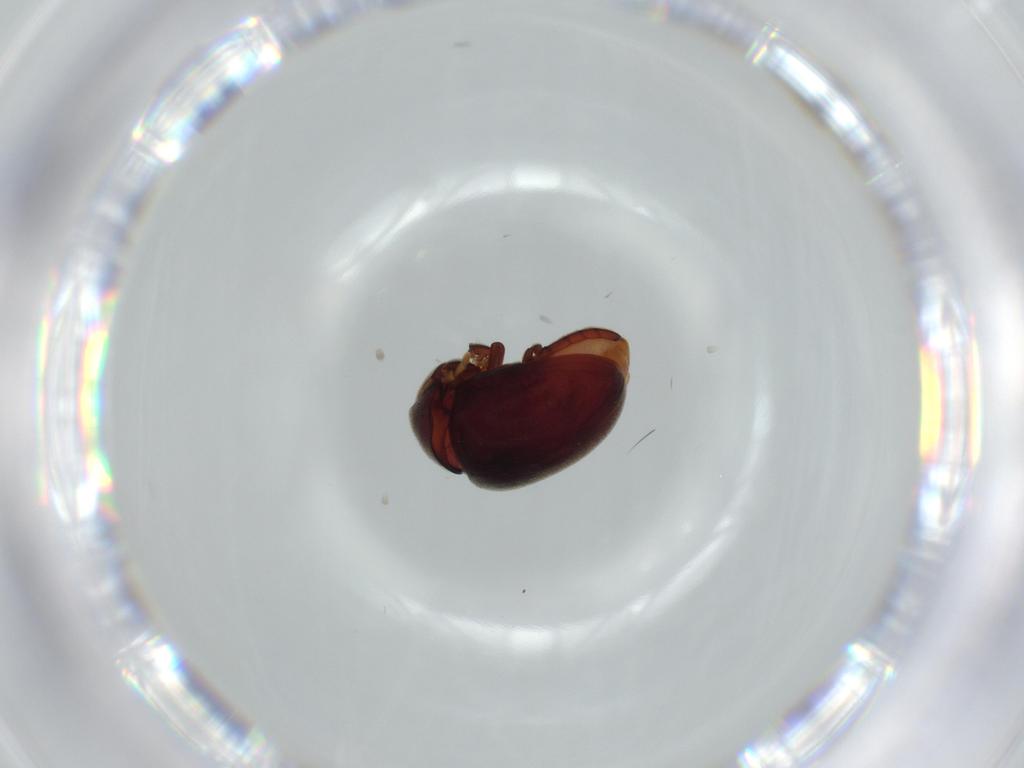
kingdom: Animalia
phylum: Arthropoda
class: Insecta
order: Coleoptera
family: Ptinidae
